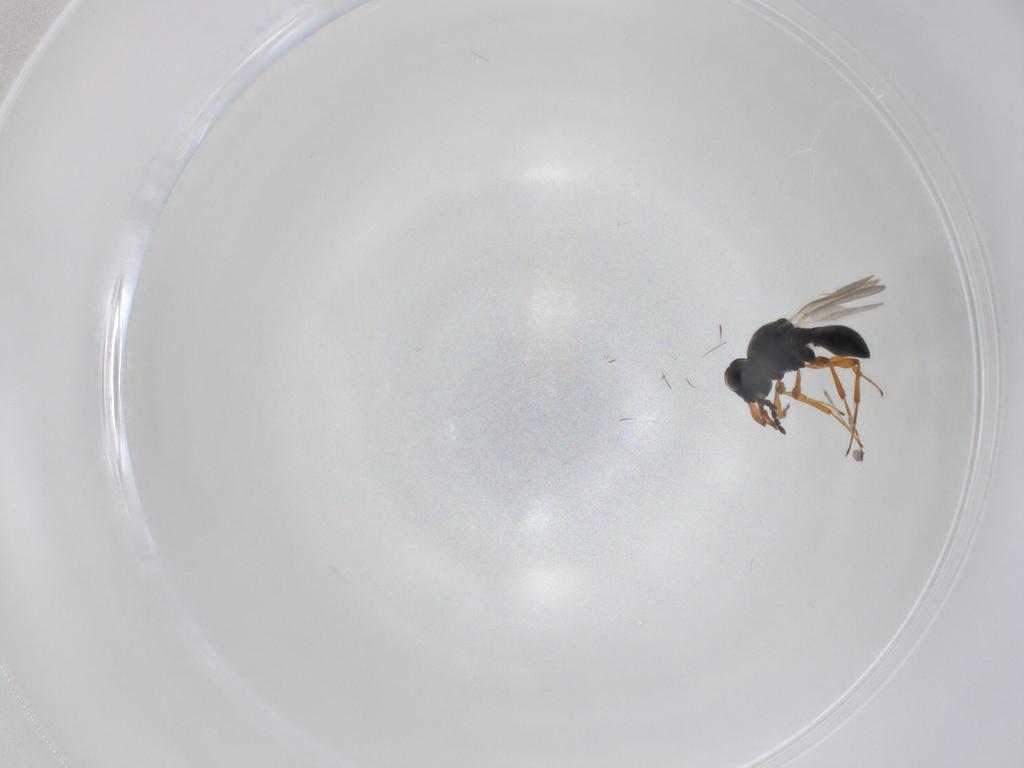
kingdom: Animalia
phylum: Arthropoda
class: Insecta
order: Hymenoptera
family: Platygastridae
